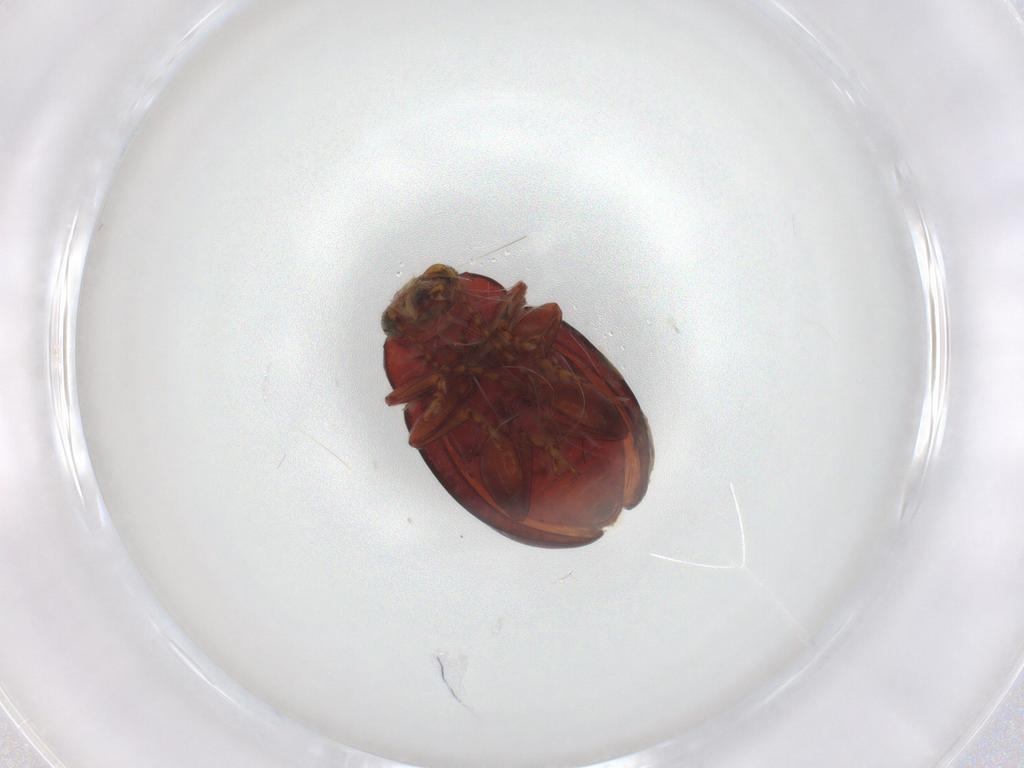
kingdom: Animalia
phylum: Arthropoda
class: Insecta
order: Coleoptera
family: Chrysomelidae
